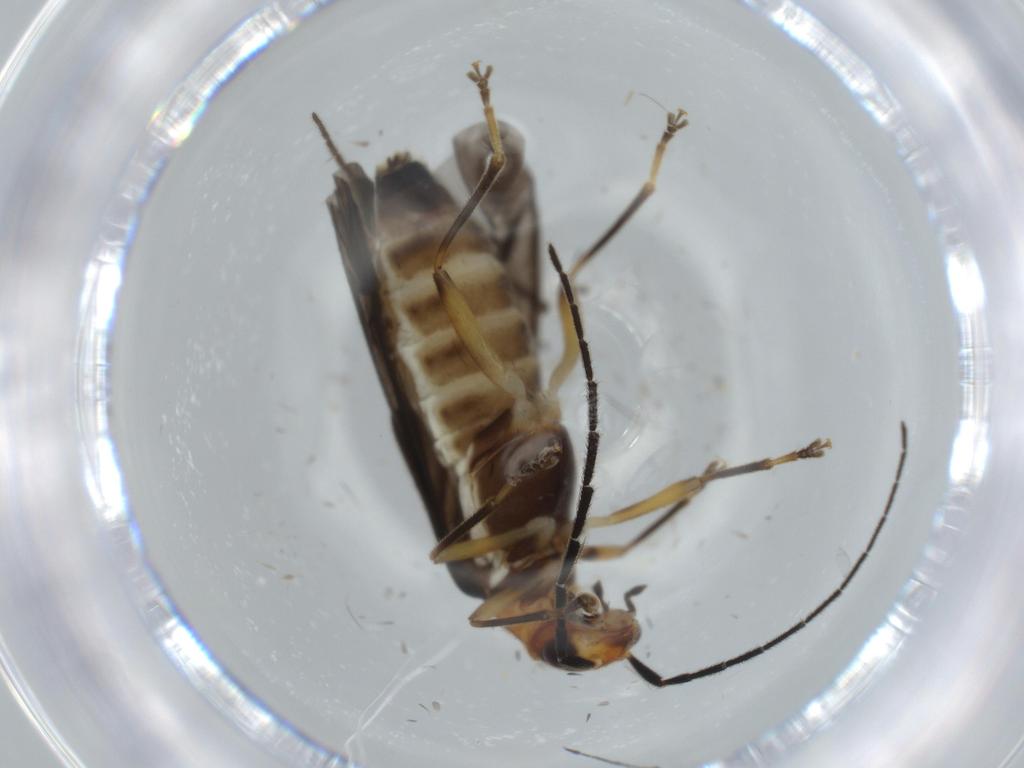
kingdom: Animalia
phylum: Arthropoda
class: Insecta
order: Coleoptera
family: Cantharidae
